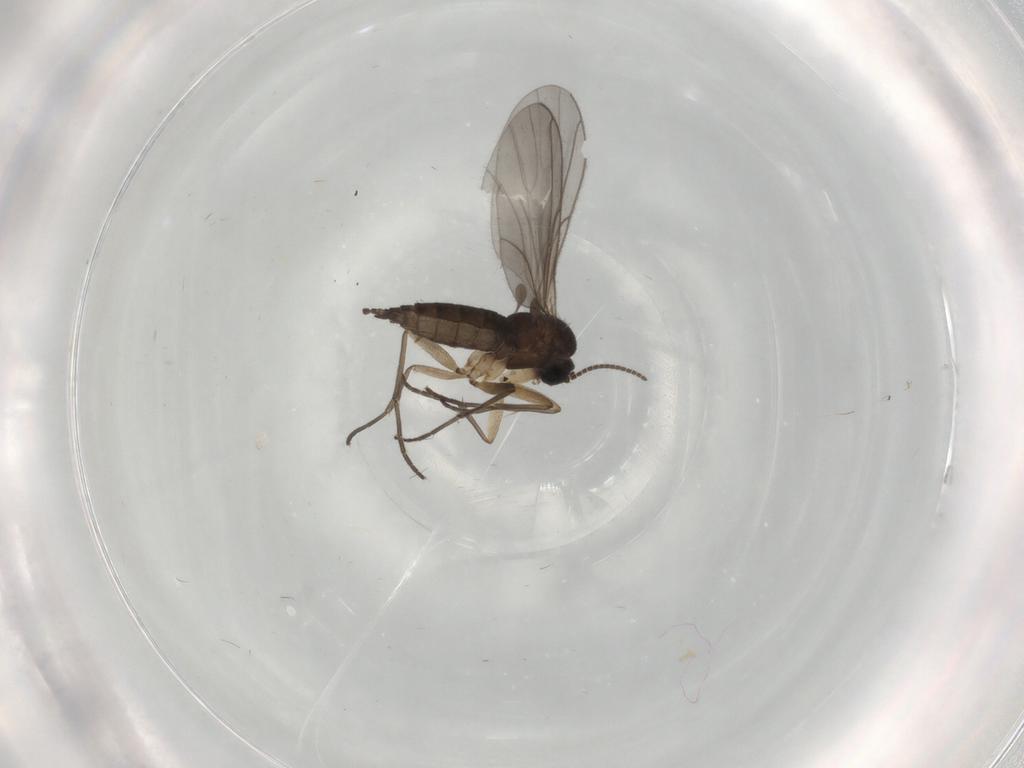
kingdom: Animalia
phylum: Arthropoda
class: Insecta
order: Diptera
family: Sciaridae
